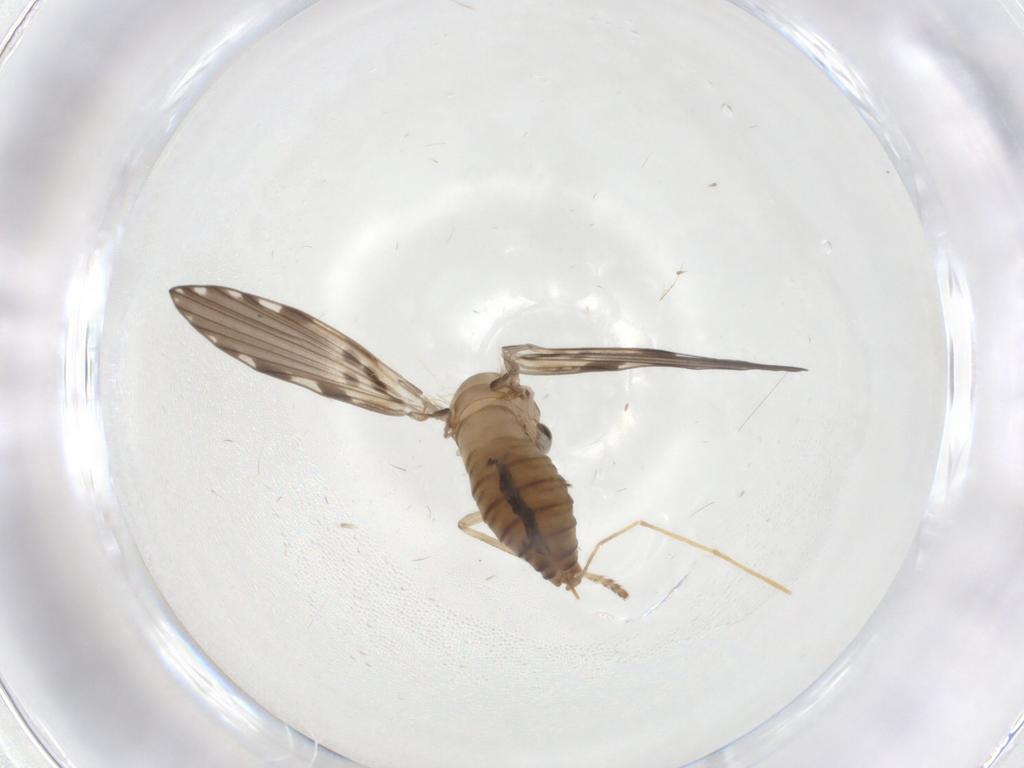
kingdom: Animalia
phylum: Arthropoda
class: Insecta
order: Diptera
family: Psychodidae
